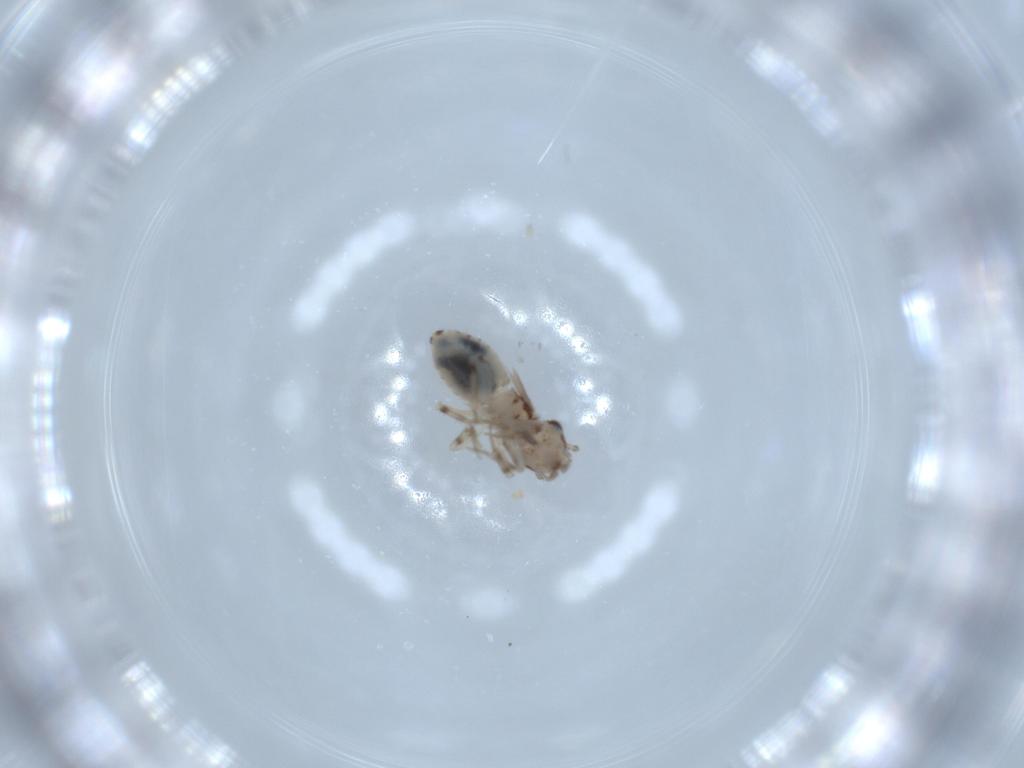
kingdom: Animalia
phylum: Arthropoda
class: Insecta
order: Psocodea
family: Lepidopsocidae
